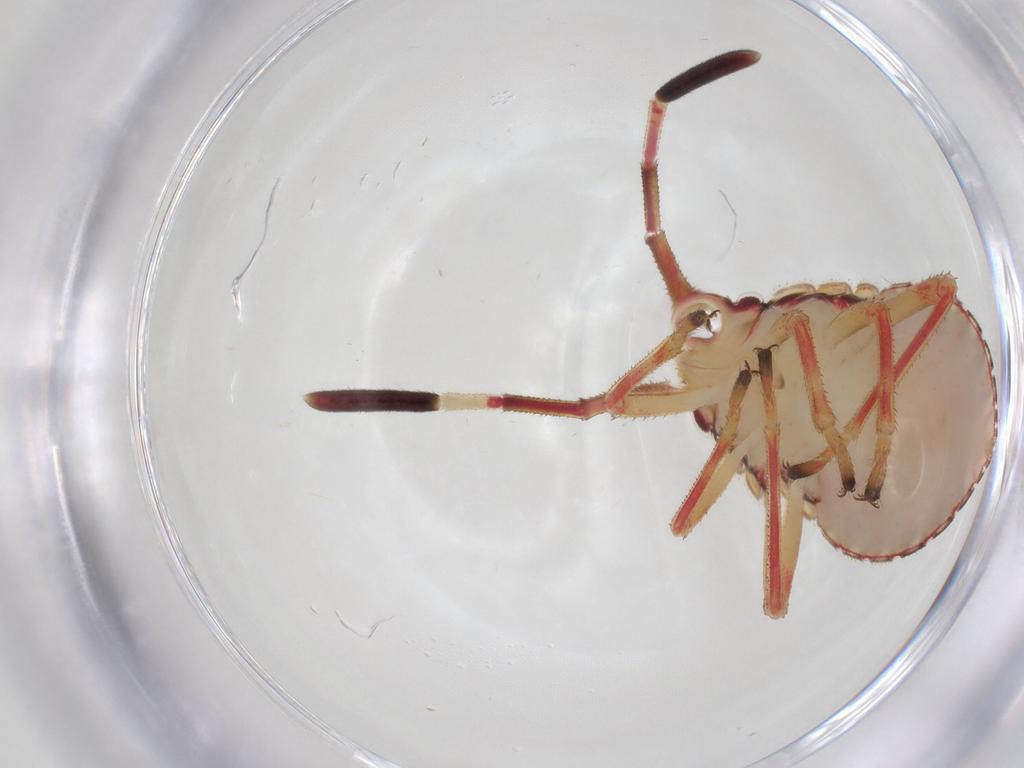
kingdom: Animalia
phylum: Arthropoda
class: Insecta
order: Hemiptera
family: Coreidae
